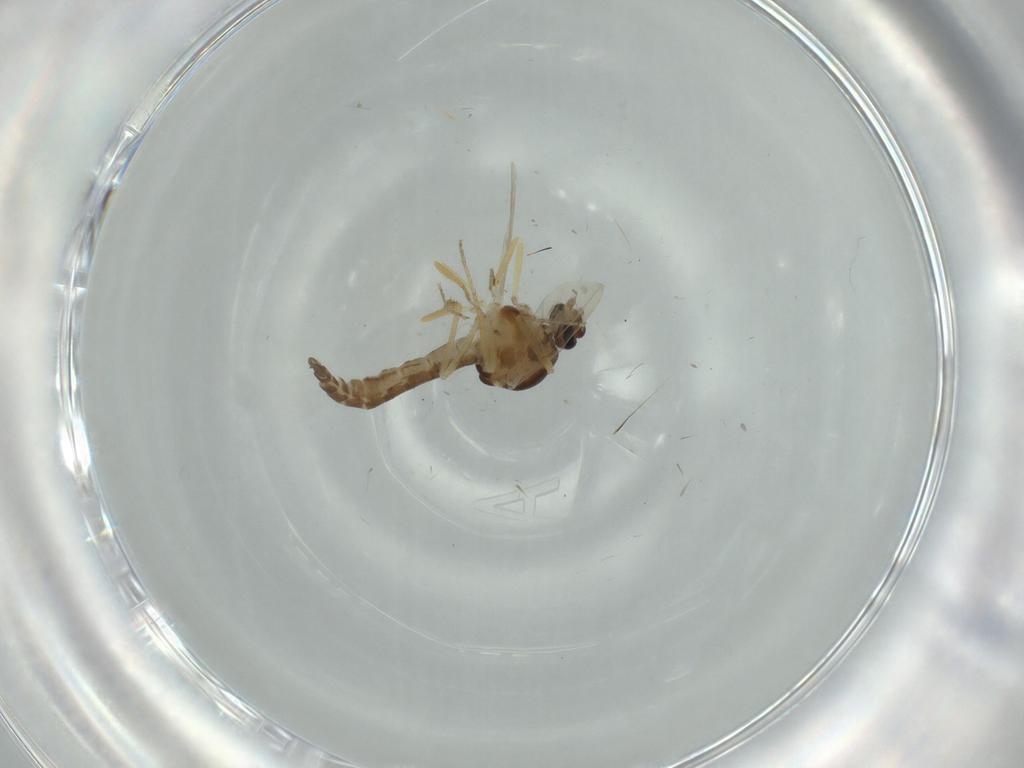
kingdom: Animalia
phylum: Arthropoda
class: Insecta
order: Diptera
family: Ceratopogonidae
